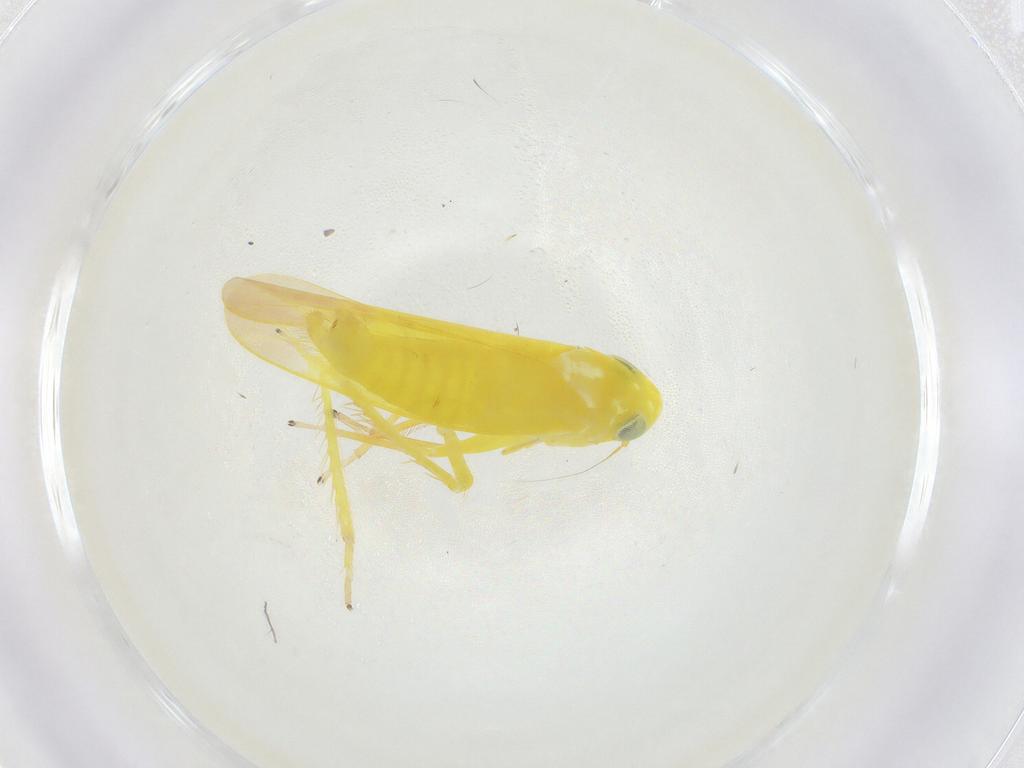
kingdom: Animalia
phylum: Arthropoda
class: Insecta
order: Hemiptera
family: Cicadellidae
